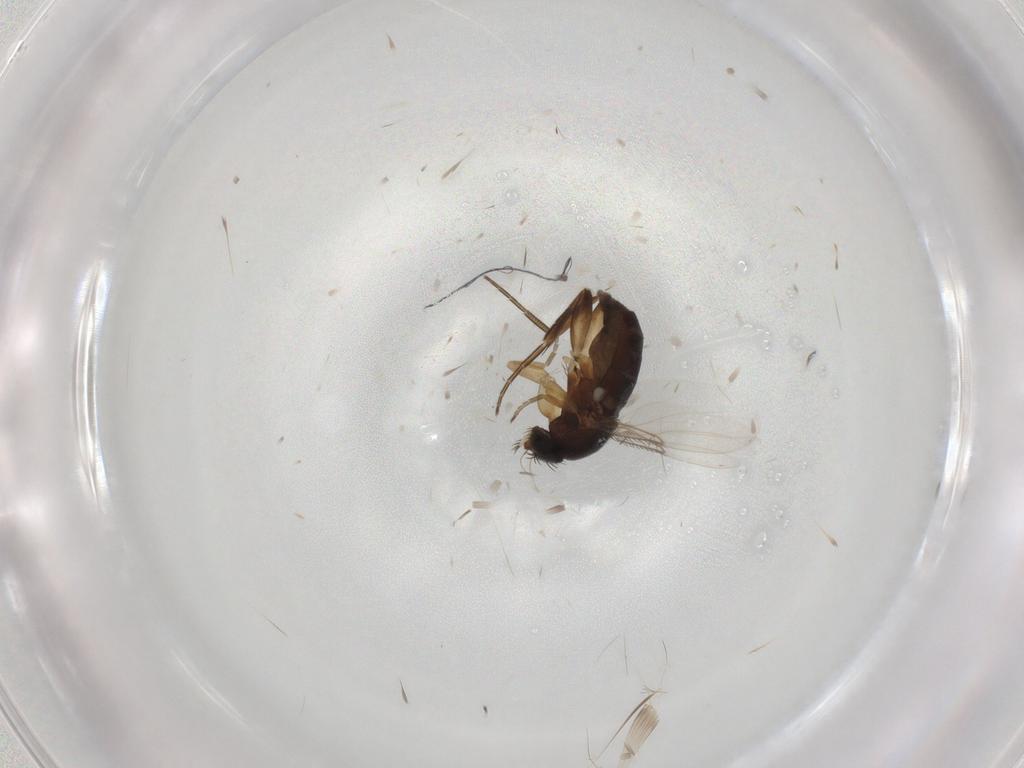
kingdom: Animalia
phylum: Arthropoda
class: Insecta
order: Diptera
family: Phoridae
